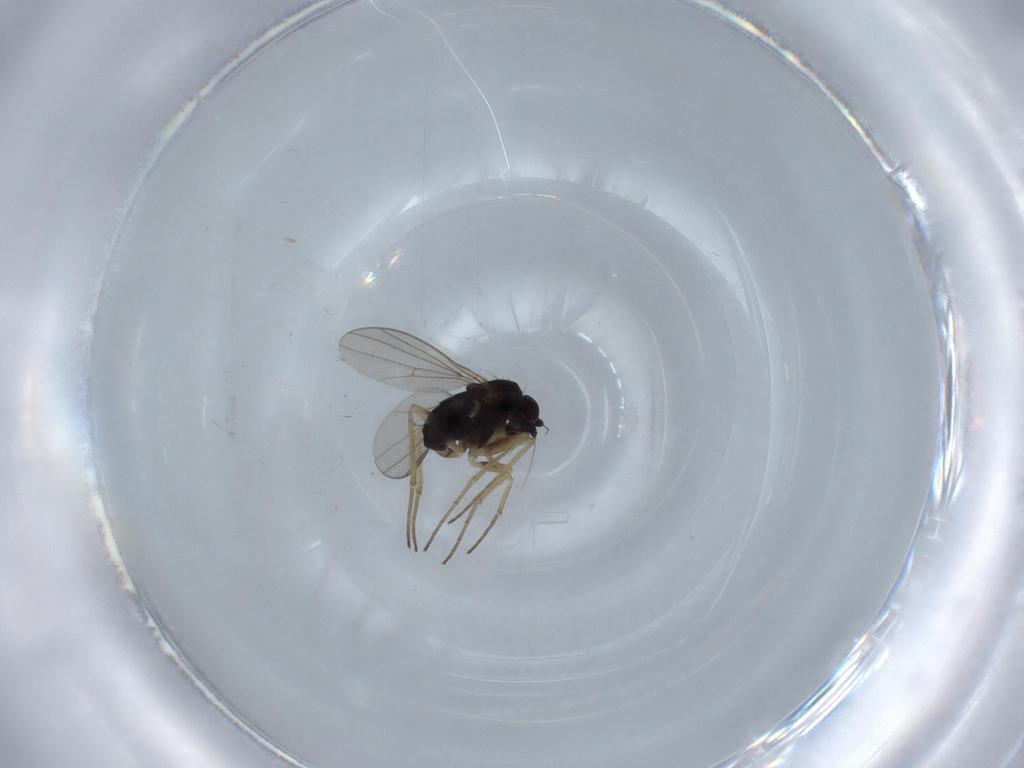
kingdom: Animalia
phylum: Arthropoda
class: Insecta
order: Diptera
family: Dolichopodidae
